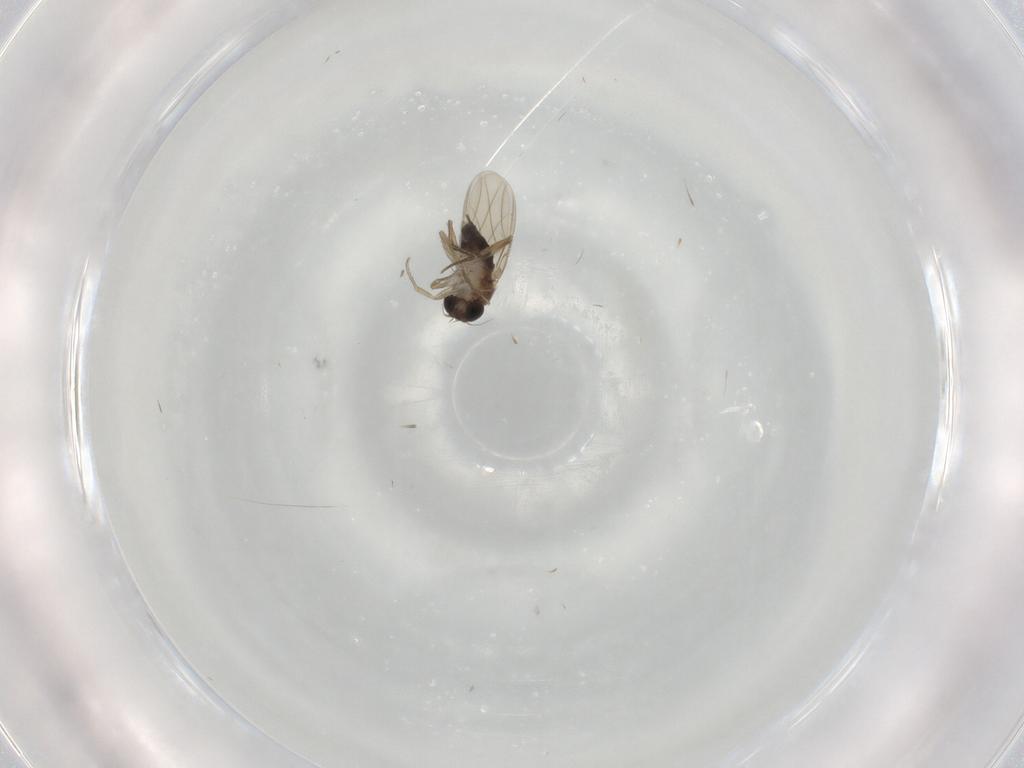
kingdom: Animalia
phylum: Arthropoda
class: Insecta
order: Diptera
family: Phoridae
